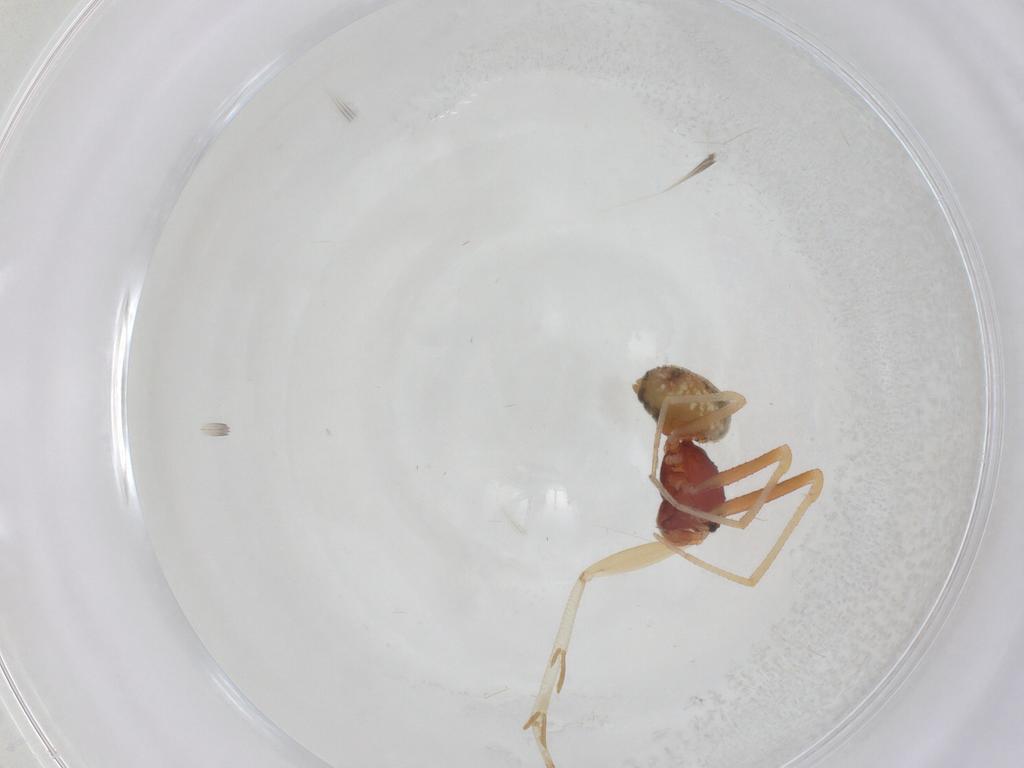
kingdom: Animalia
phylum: Arthropoda
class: Arachnida
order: Araneae
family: Theridiidae
